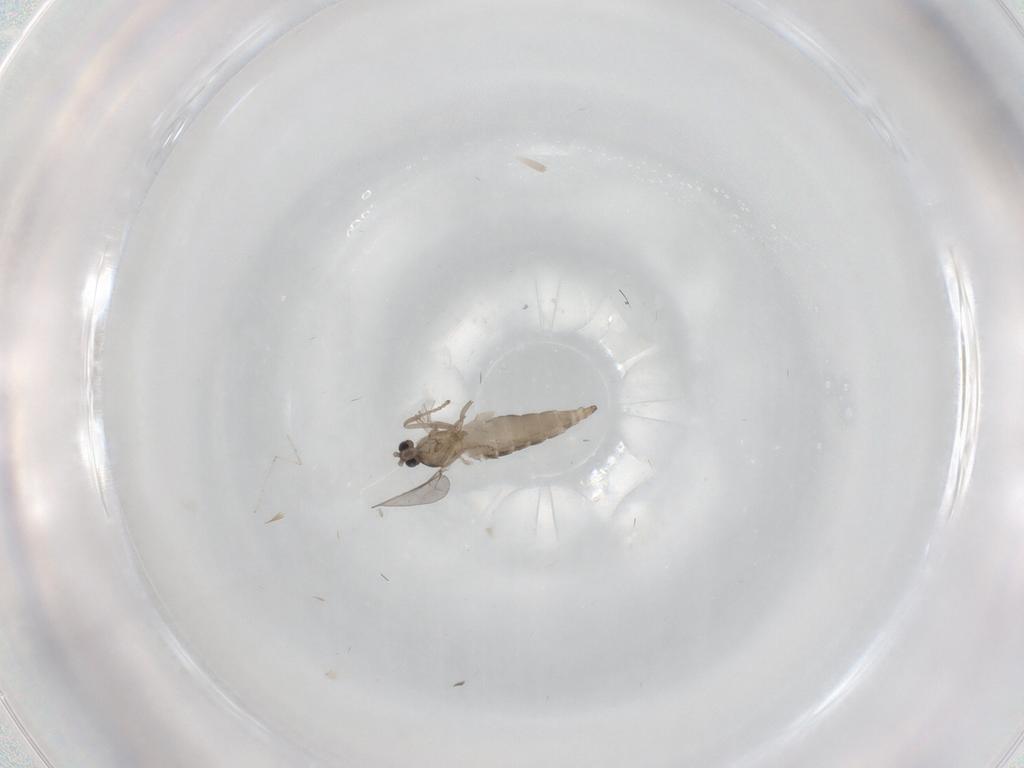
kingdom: Animalia
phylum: Arthropoda
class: Insecta
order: Diptera
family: Cecidomyiidae
